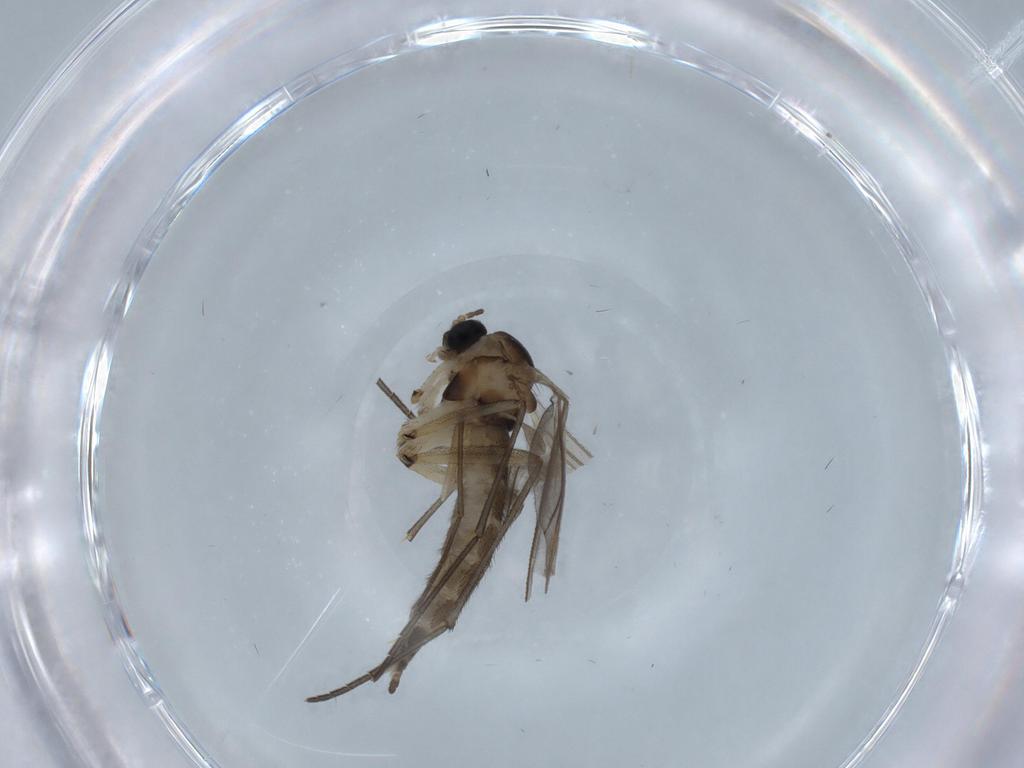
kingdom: Animalia
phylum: Arthropoda
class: Insecta
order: Diptera
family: Sciaridae
